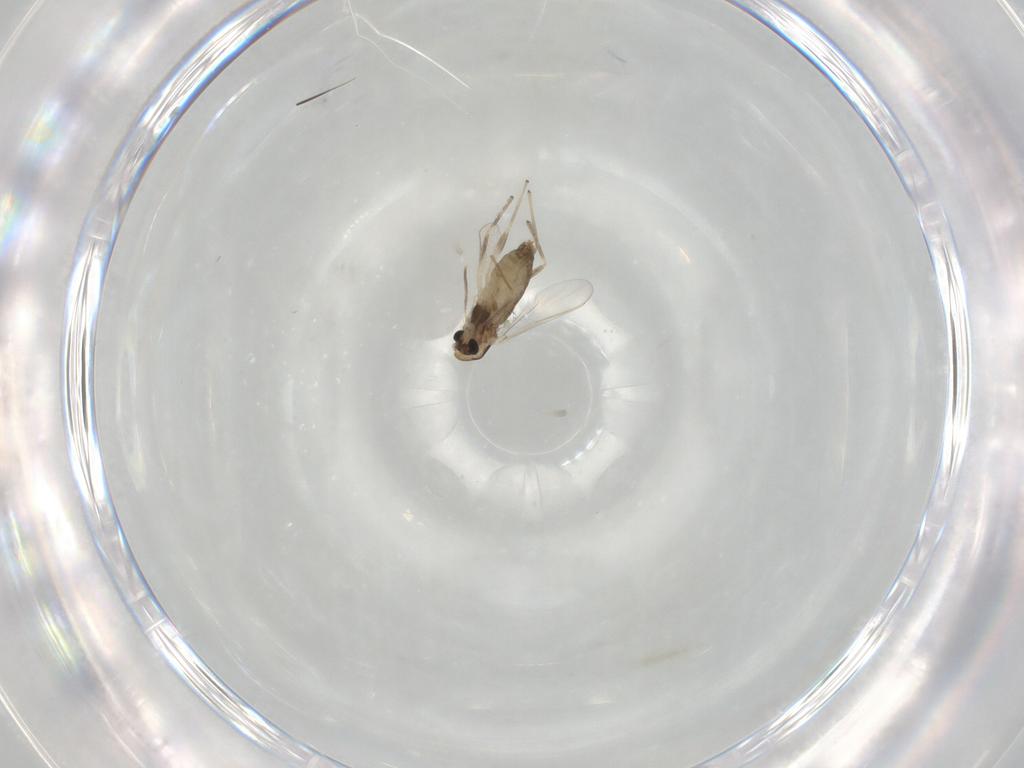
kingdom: Animalia
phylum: Arthropoda
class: Insecta
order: Diptera
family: Chironomidae
